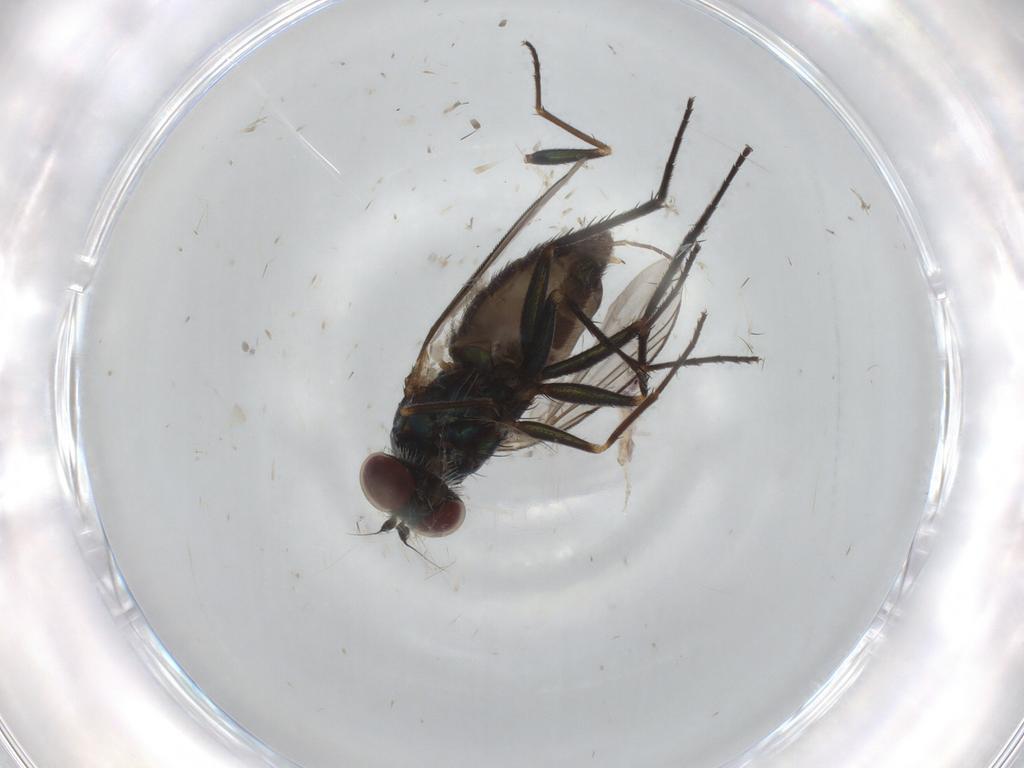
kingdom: Animalia
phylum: Arthropoda
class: Insecta
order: Diptera
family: Dolichopodidae
